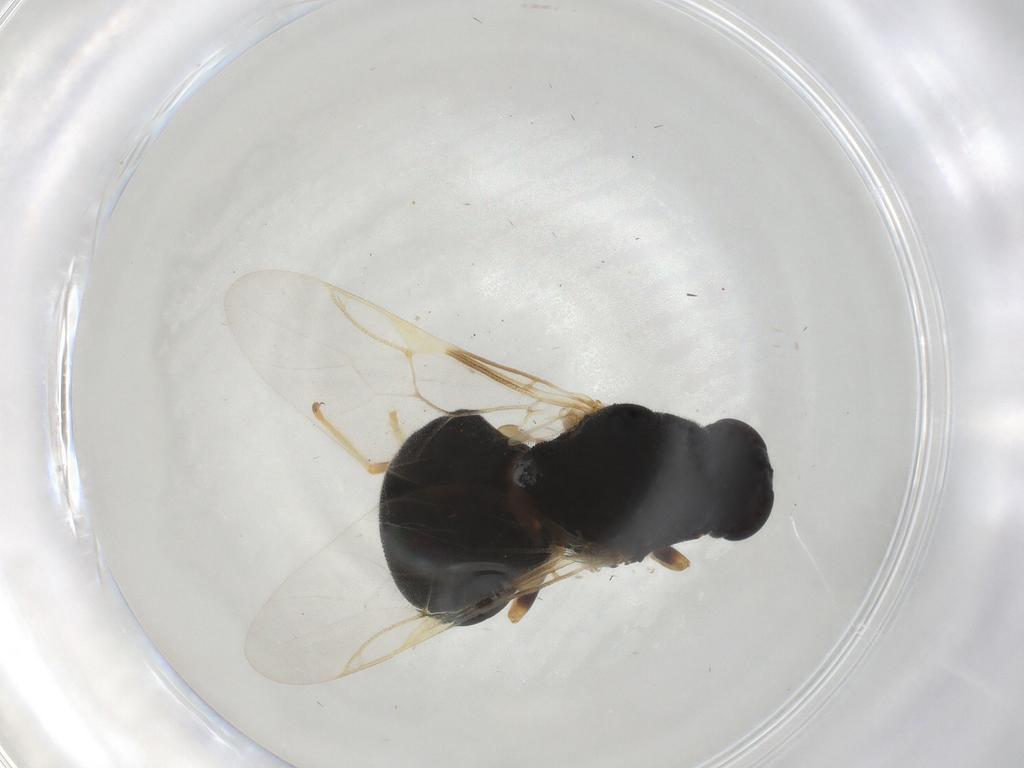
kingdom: Animalia
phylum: Arthropoda
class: Insecta
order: Diptera
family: Stratiomyidae
